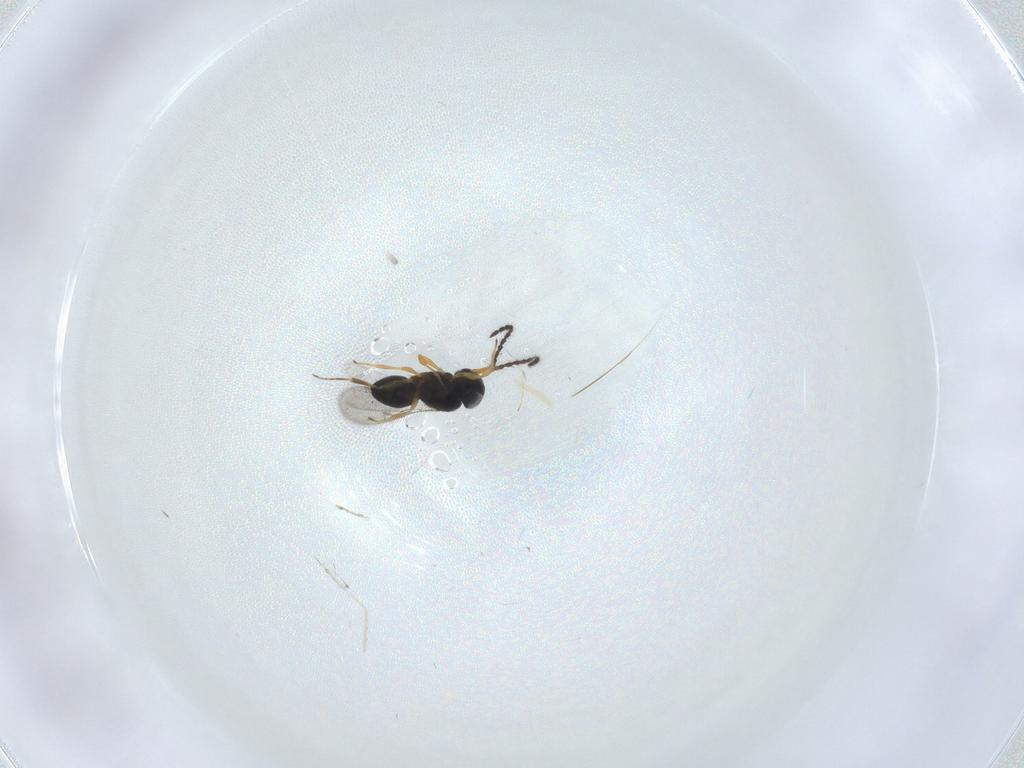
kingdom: Animalia
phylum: Arthropoda
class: Insecta
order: Hymenoptera
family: Scelionidae
